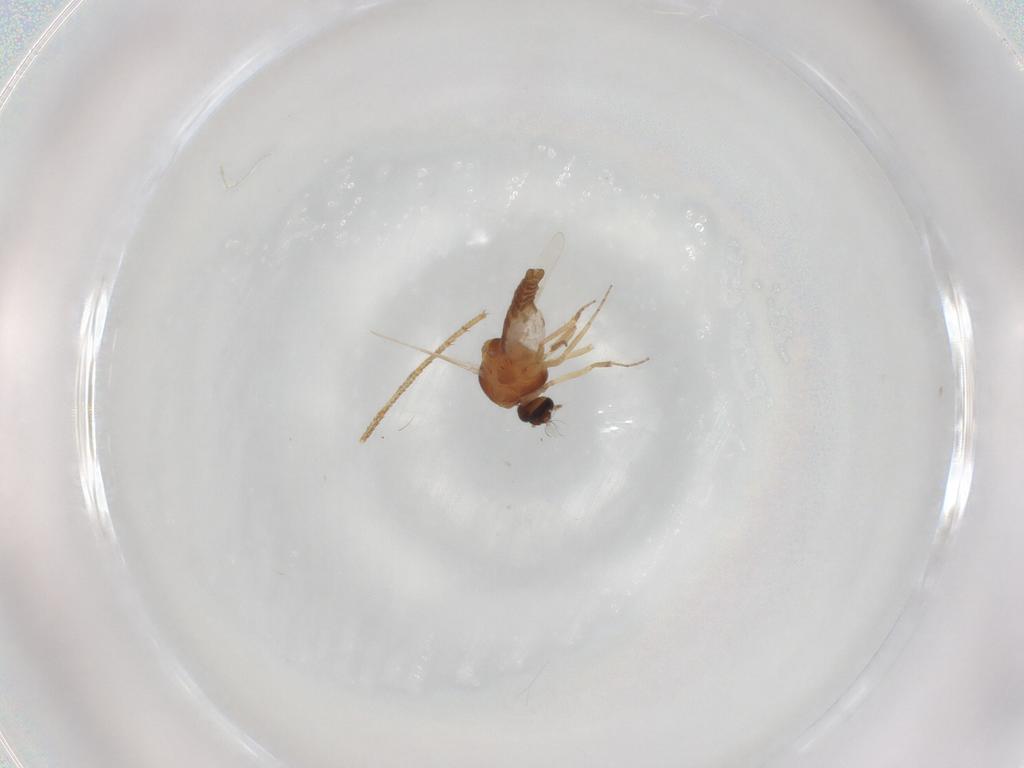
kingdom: Animalia
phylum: Arthropoda
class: Insecta
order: Diptera
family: Ceratopogonidae
